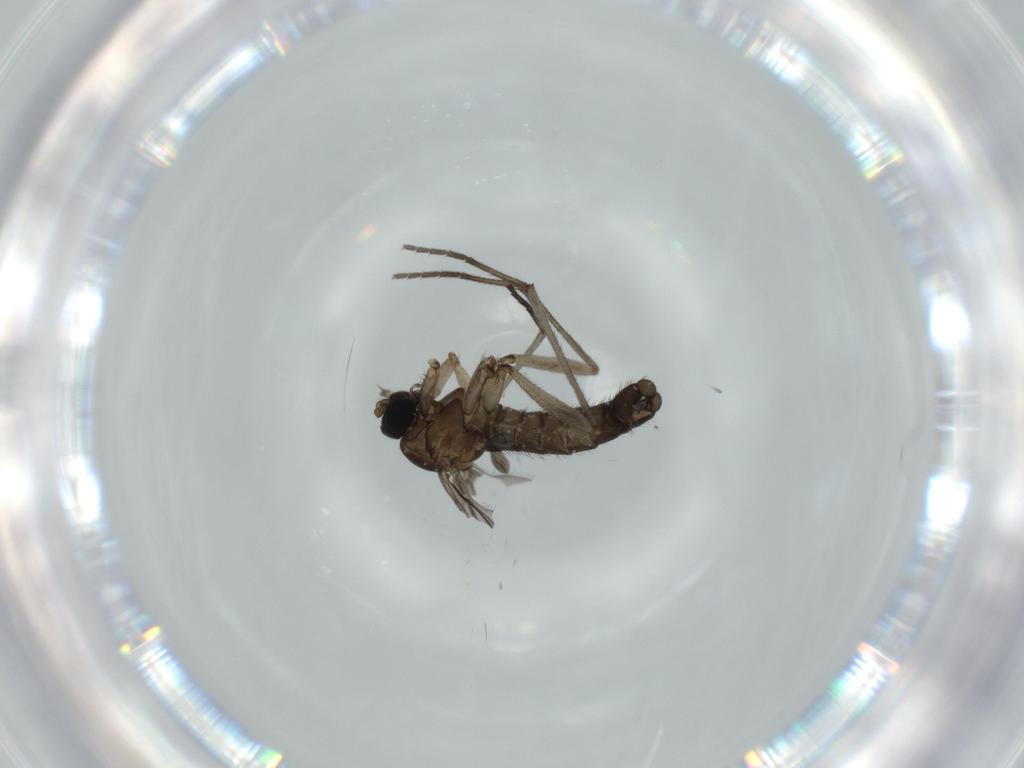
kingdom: Animalia
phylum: Arthropoda
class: Insecta
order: Diptera
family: Sciaridae
